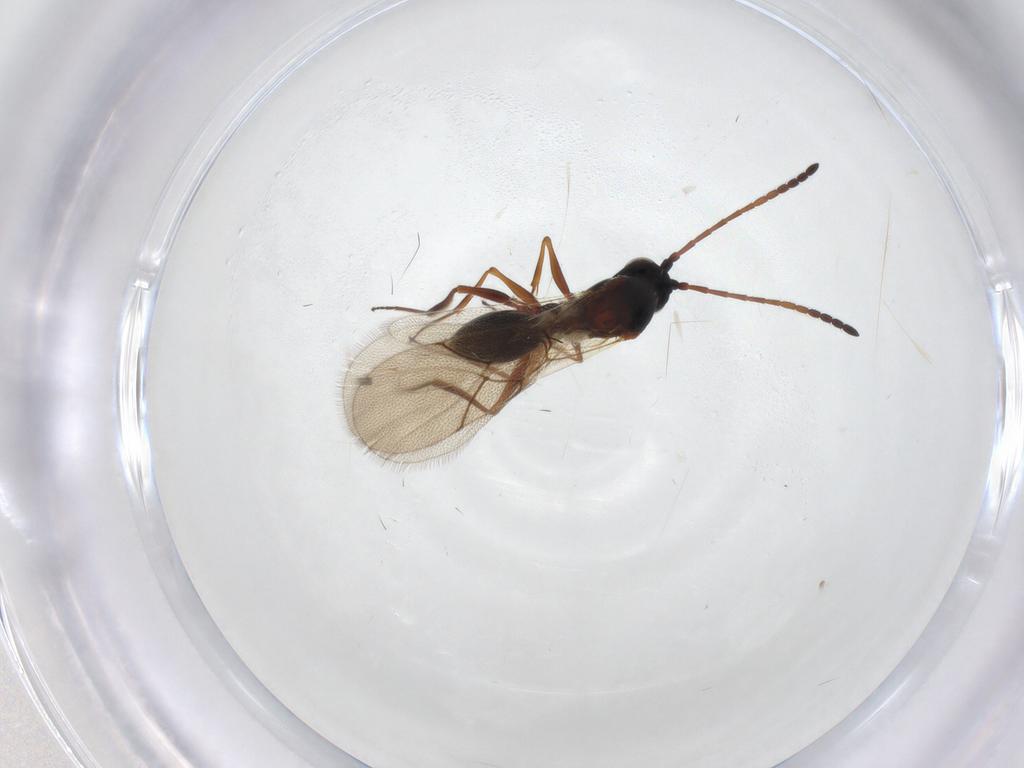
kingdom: Animalia
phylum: Arthropoda
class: Insecta
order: Hymenoptera
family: Figitidae
